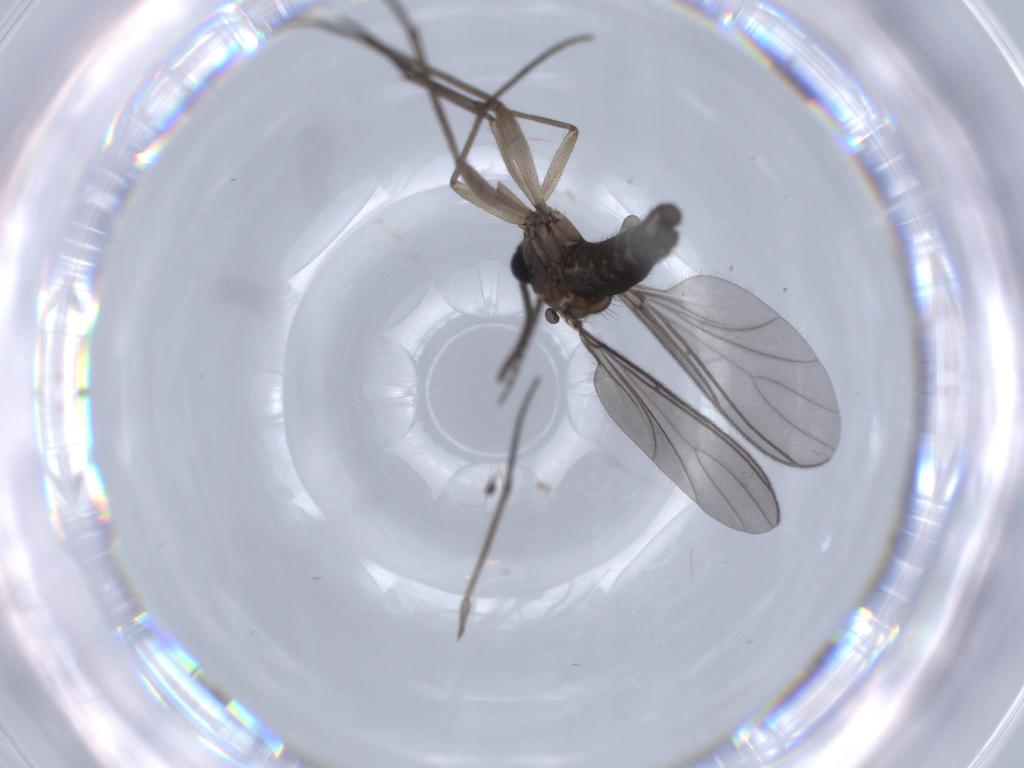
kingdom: Animalia
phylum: Arthropoda
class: Insecta
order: Diptera
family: Sciaridae
